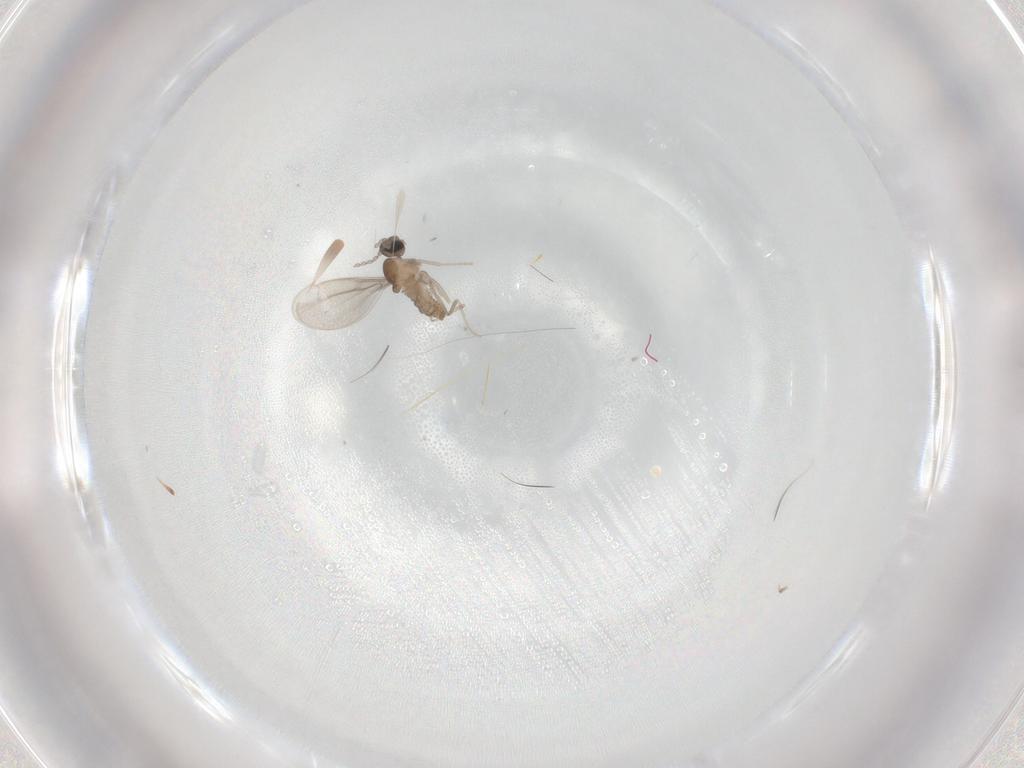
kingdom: Animalia
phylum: Arthropoda
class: Insecta
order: Diptera
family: Cecidomyiidae
